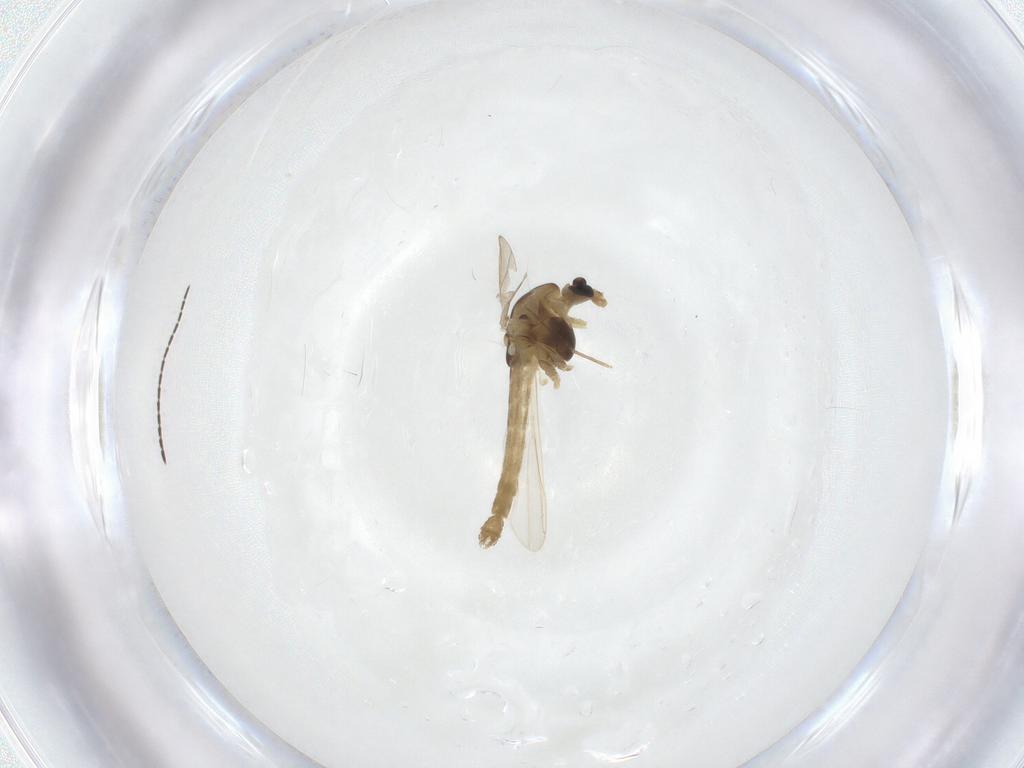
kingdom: Animalia
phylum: Arthropoda
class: Insecta
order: Diptera
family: Chironomidae
